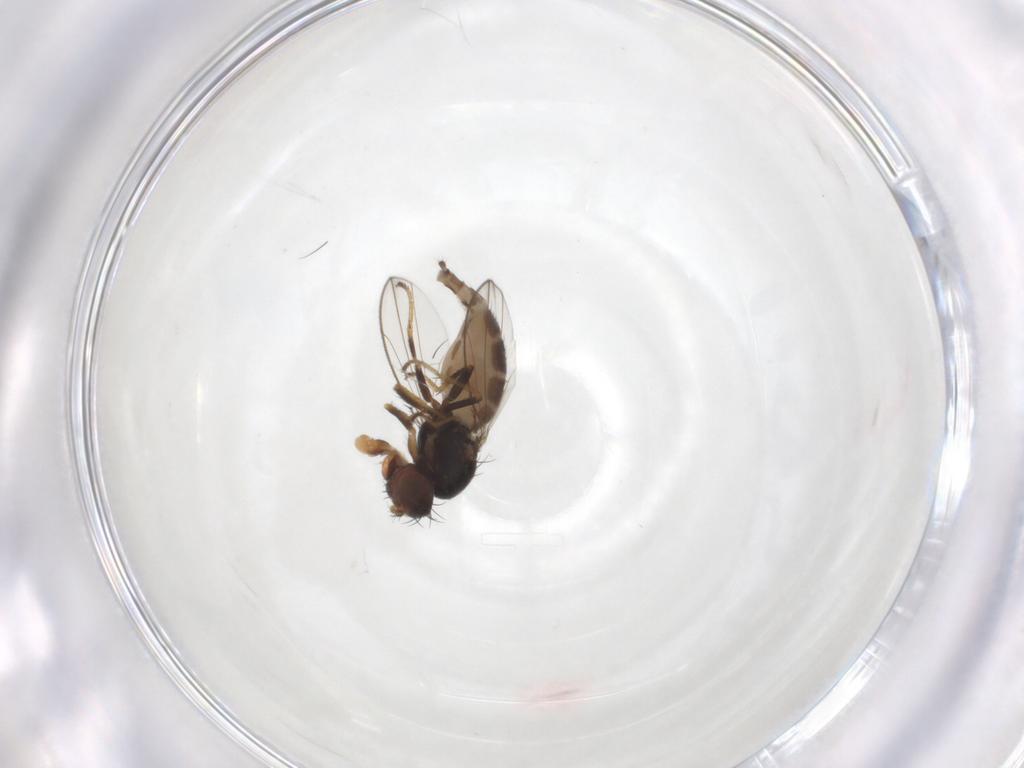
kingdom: Animalia
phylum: Arthropoda
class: Insecta
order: Diptera
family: Ephydridae
